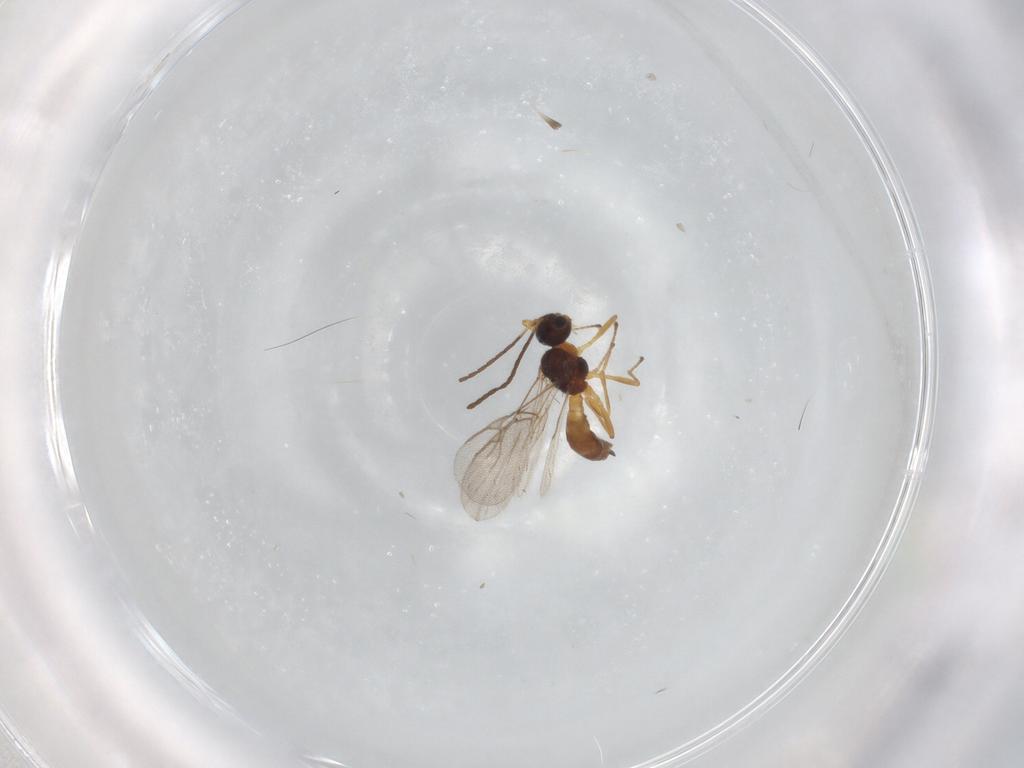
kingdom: Animalia
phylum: Arthropoda
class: Insecta
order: Hymenoptera
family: Braconidae
